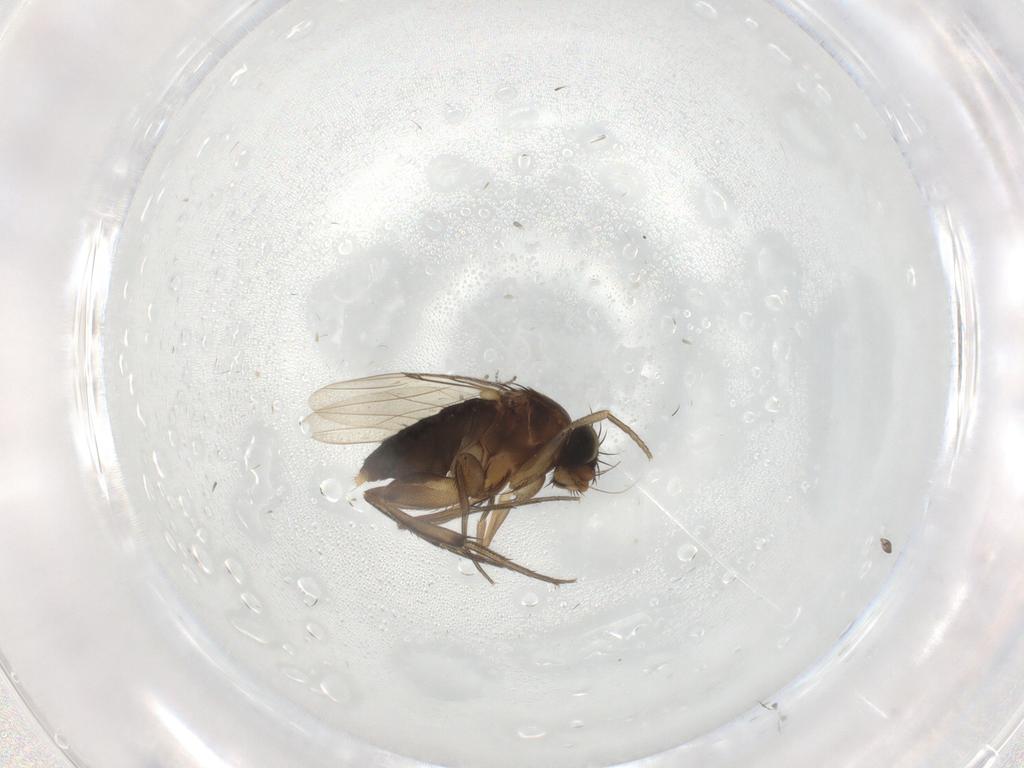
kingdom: Animalia
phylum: Arthropoda
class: Insecta
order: Diptera
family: Phoridae
